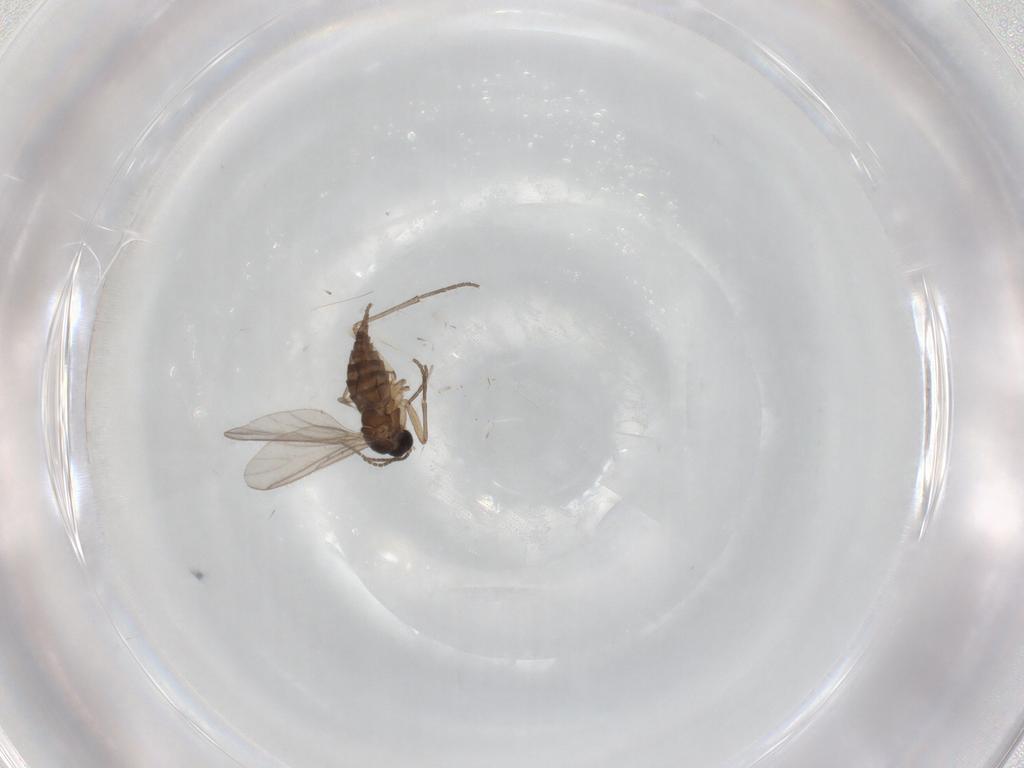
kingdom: Animalia
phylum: Arthropoda
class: Insecta
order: Diptera
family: Sciaridae
